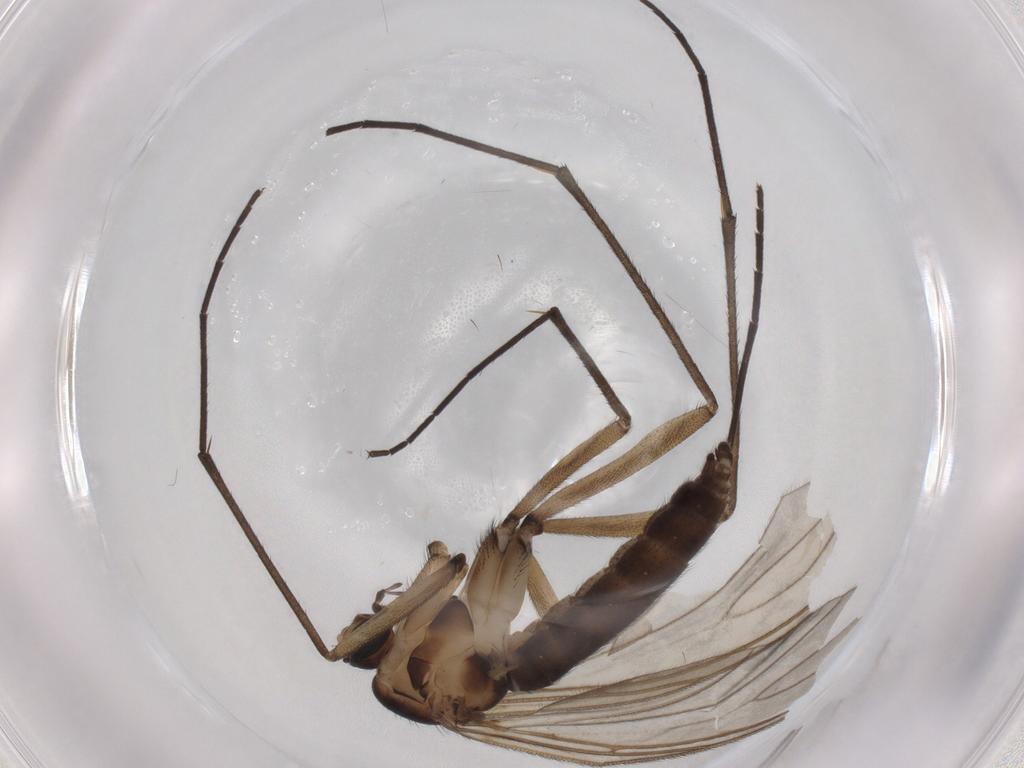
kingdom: Animalia
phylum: Arthropoda
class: Insecta
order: Diptera
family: Sciaridae
